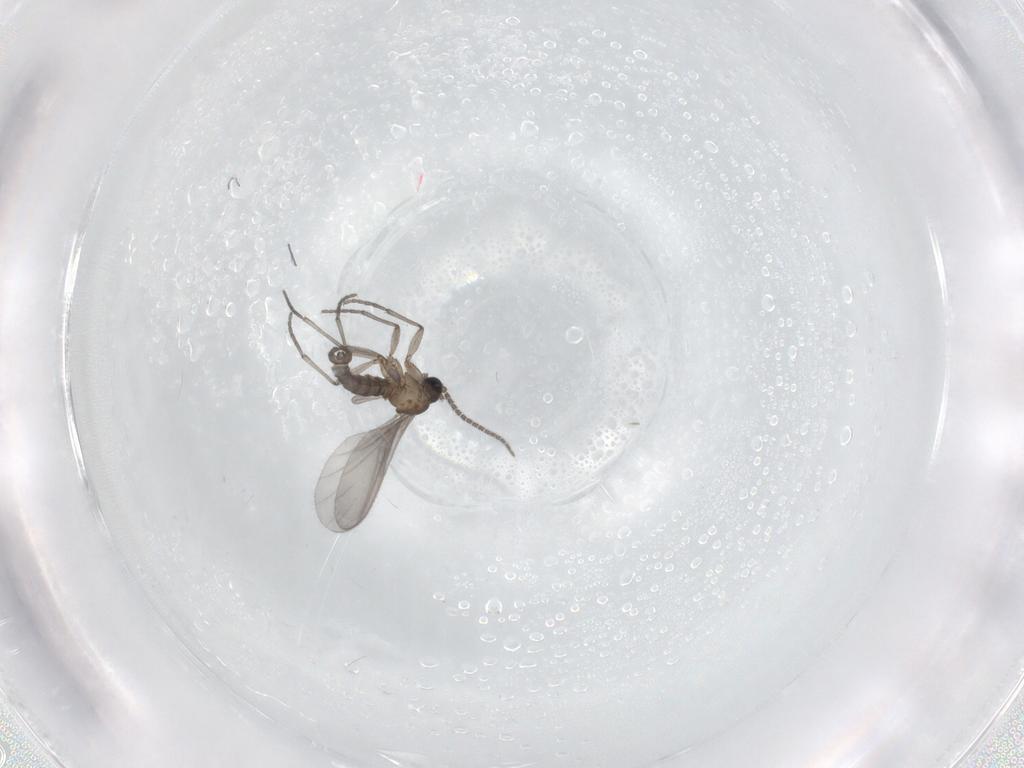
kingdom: Animalia
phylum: Arthropoda
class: Insecta
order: Diptera
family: Dolichopodidae
